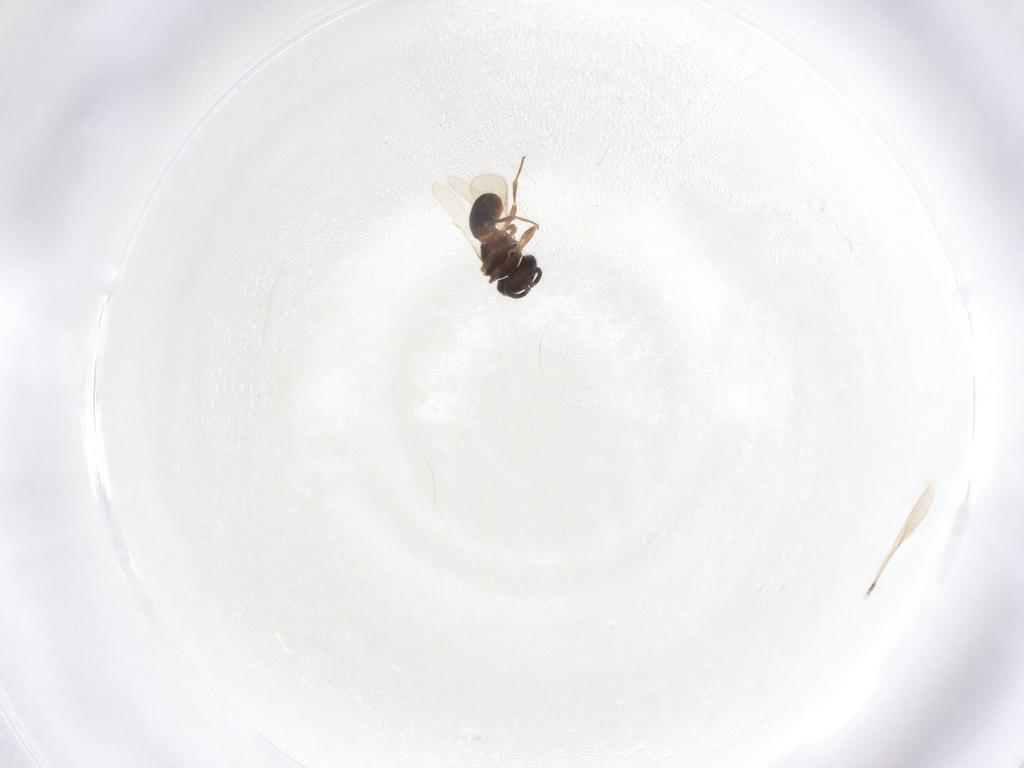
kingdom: Animalia
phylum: Arthropoda
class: Insecta
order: Hymenoptera
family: Scelionidae
